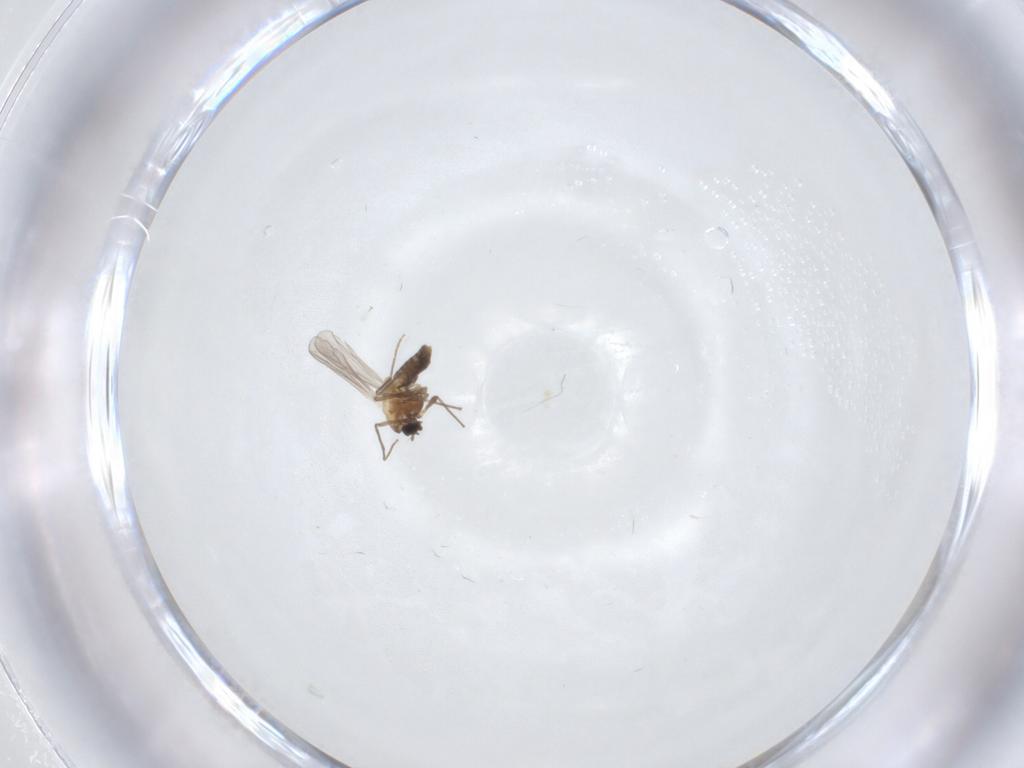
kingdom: Animalia
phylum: Arthropoda
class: Insecta
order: Diptera
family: Chironomidae
